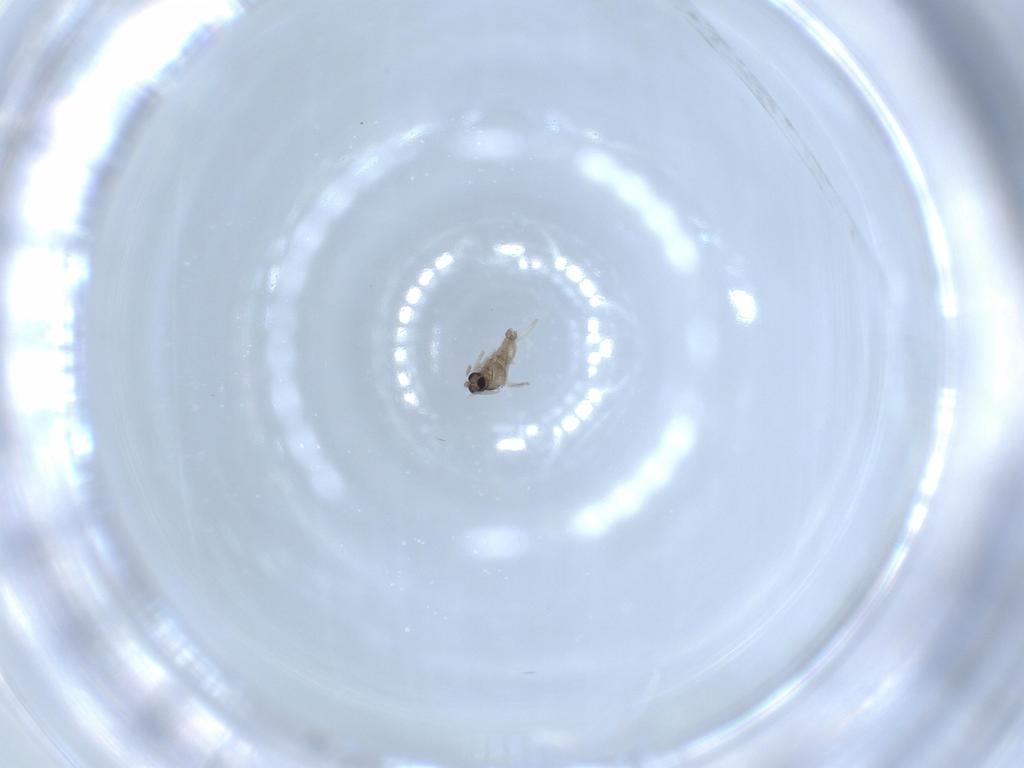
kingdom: Animalia
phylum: Arthropoda
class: Insecta
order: Diptera
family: Cecidomyiidae
